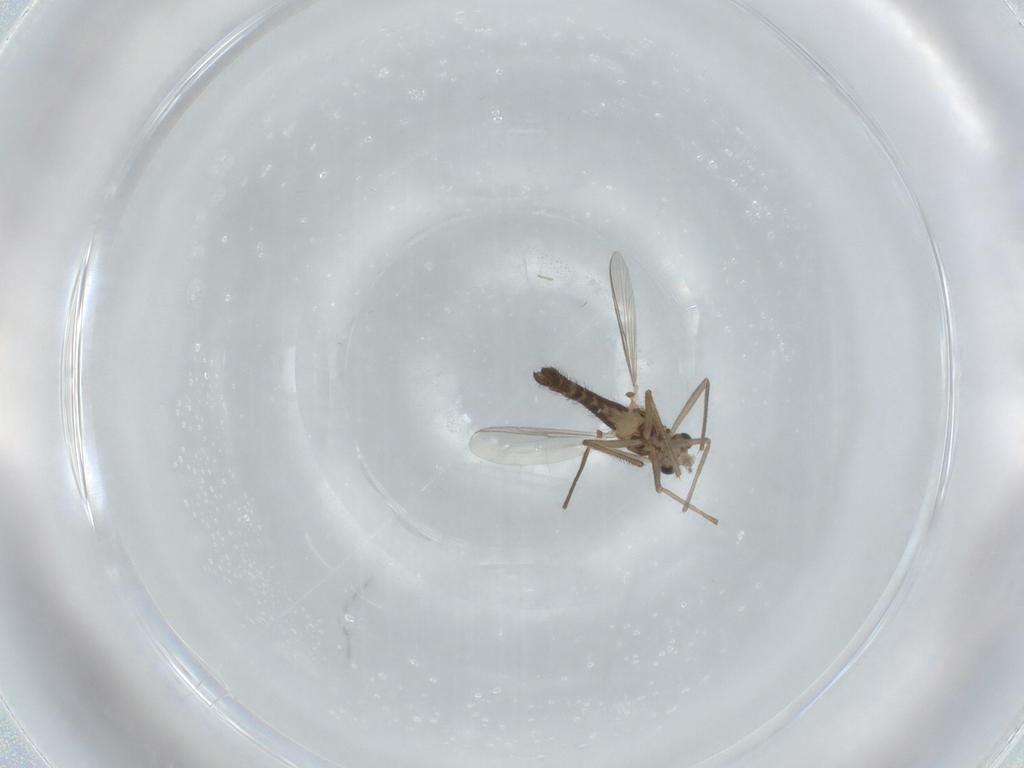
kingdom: Animalia
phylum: Arthropoda
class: Insecta
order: Diptera
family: Chironomidae
